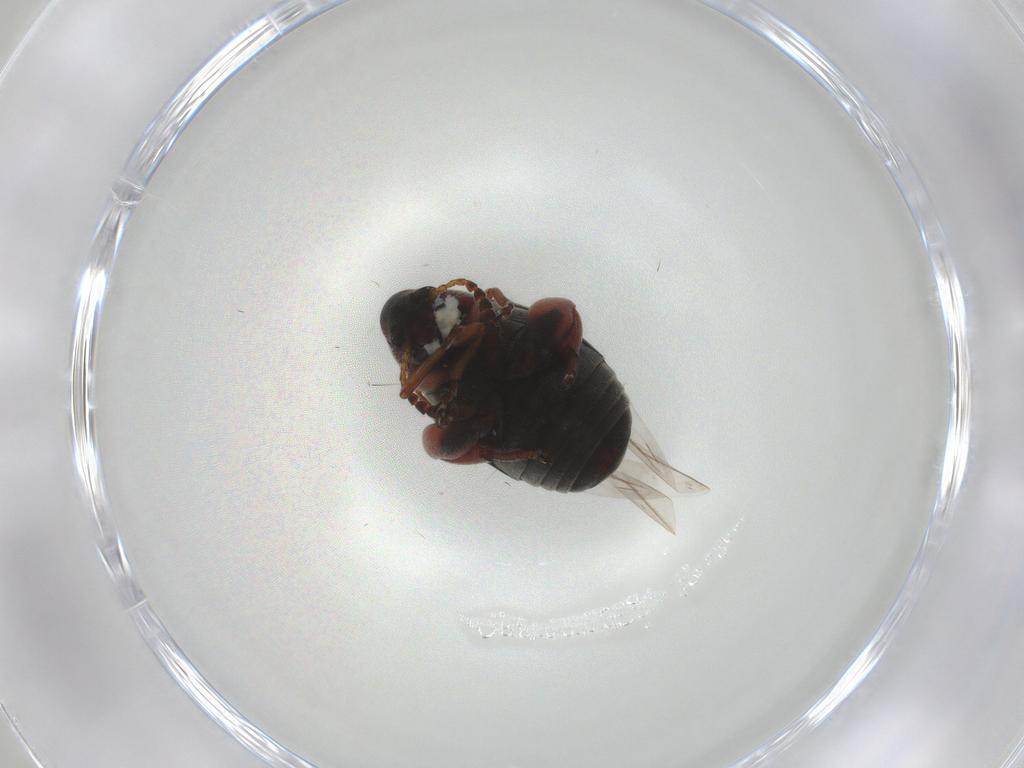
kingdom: Animalia
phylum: Arthropoda
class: Insecta
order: Coleoptera
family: Chrysomelidae
